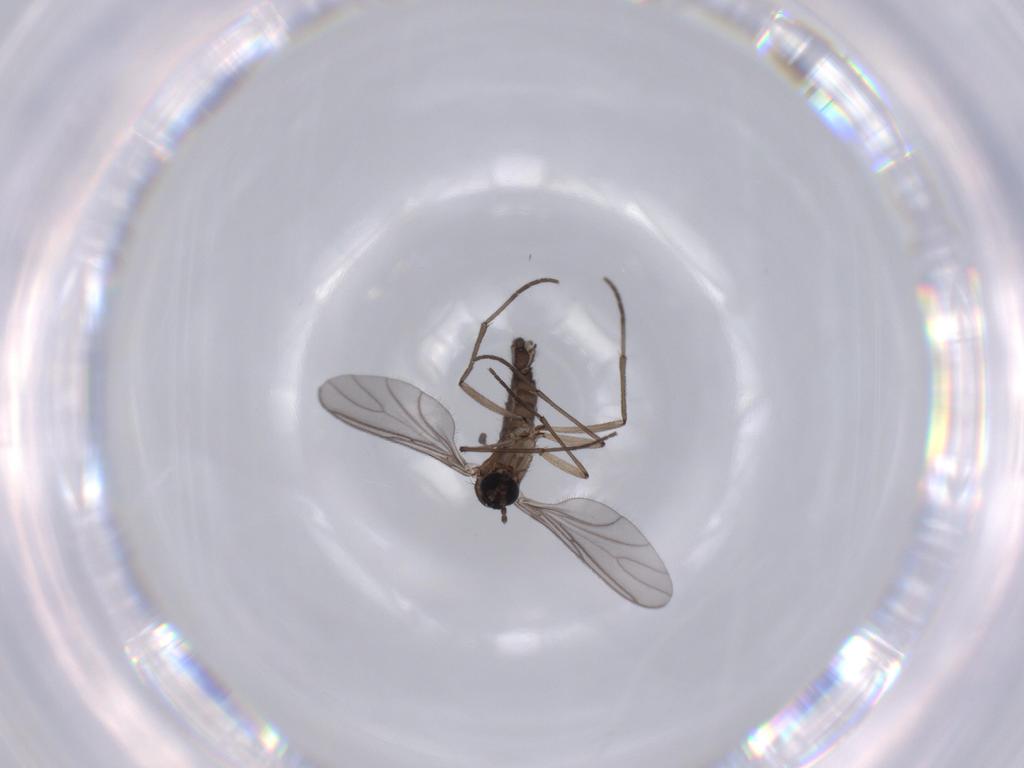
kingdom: Animalia
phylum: Arthropoda
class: Insecta
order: Diptera
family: Sciaridae
